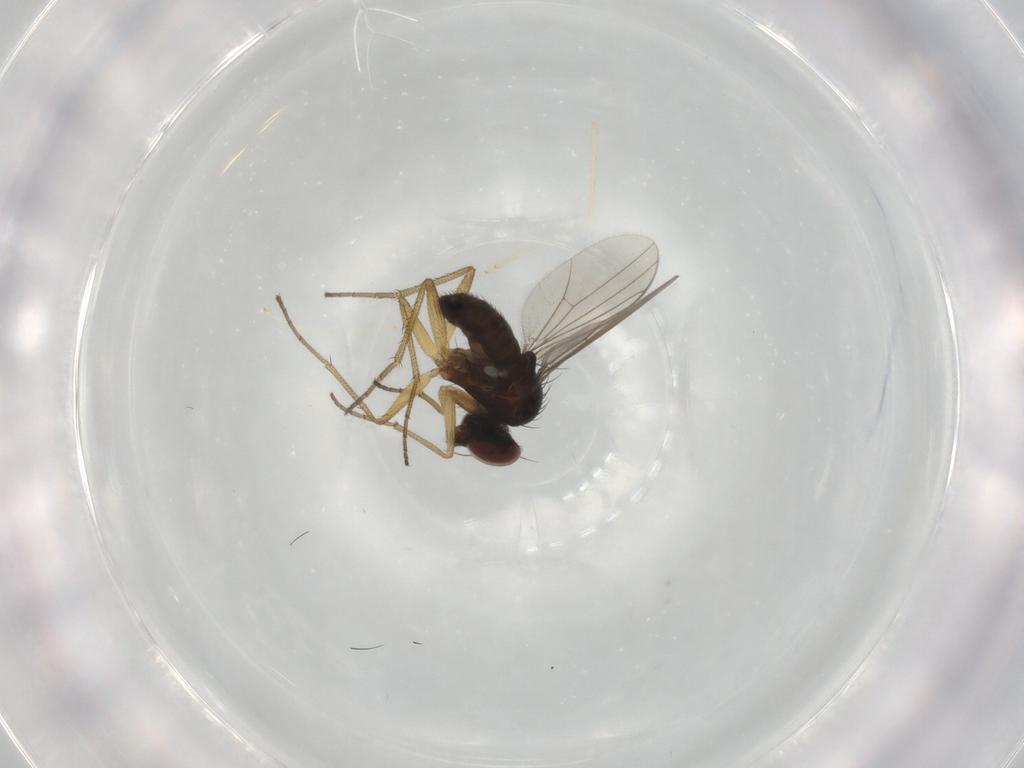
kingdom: Animalia
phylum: Arthropoda
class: Insecta
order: Diptera
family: Dolichopodidae
